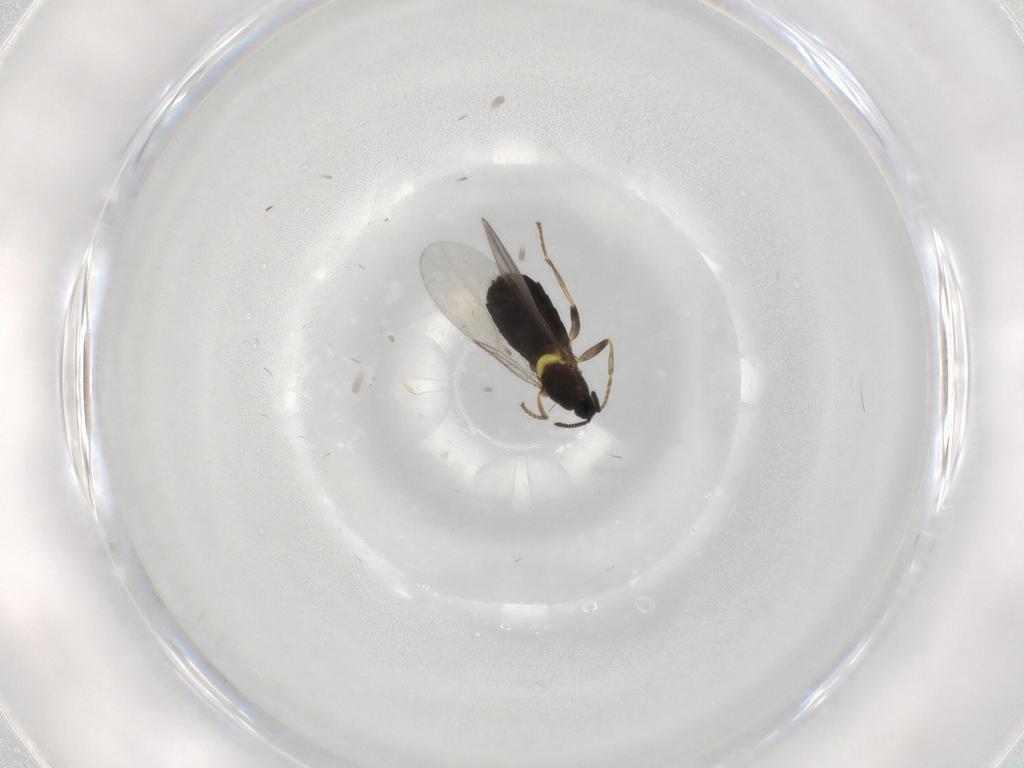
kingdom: Animalia
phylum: Arthropoda
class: Insecta
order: Diptera
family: Scatopsidae
